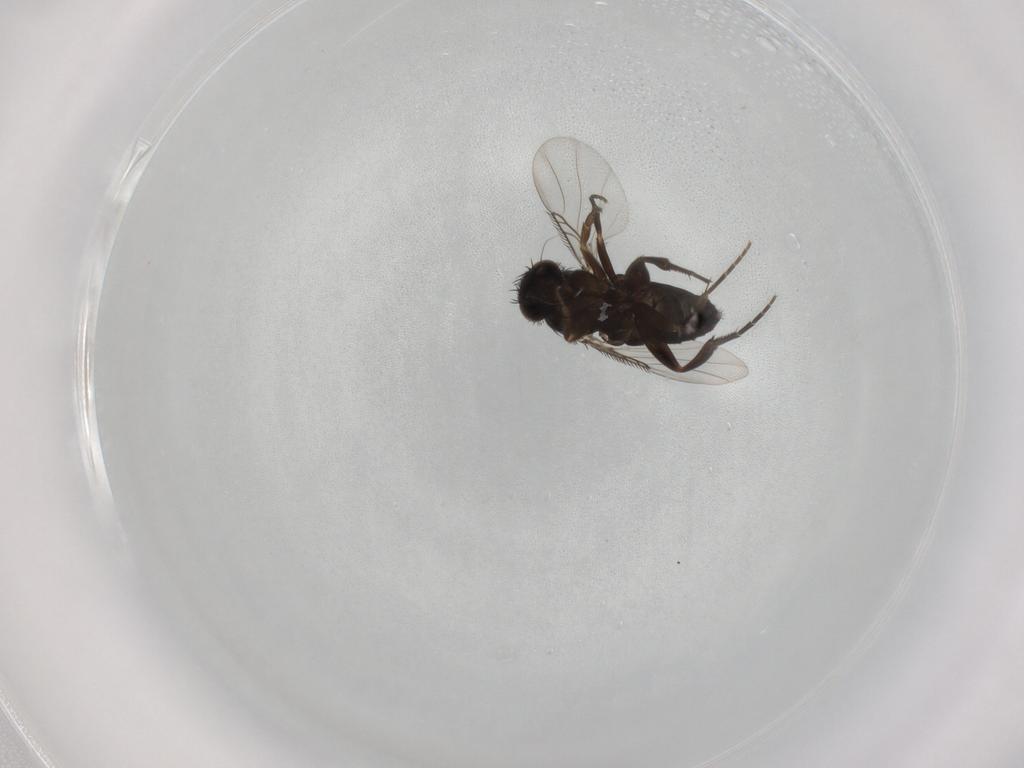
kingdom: Animalia
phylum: Arthropoda
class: Insecta
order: Diptera
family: Phoridae
